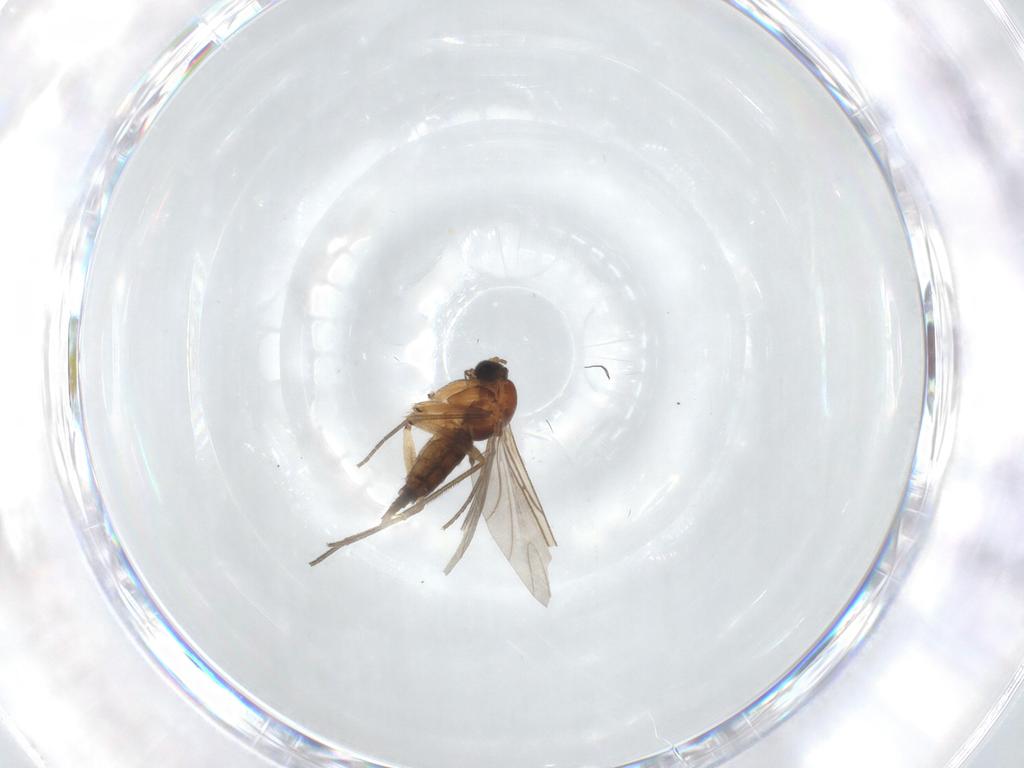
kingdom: Animalia
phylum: Arthropoda
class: Insecta
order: Diptera
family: Sciaridae
